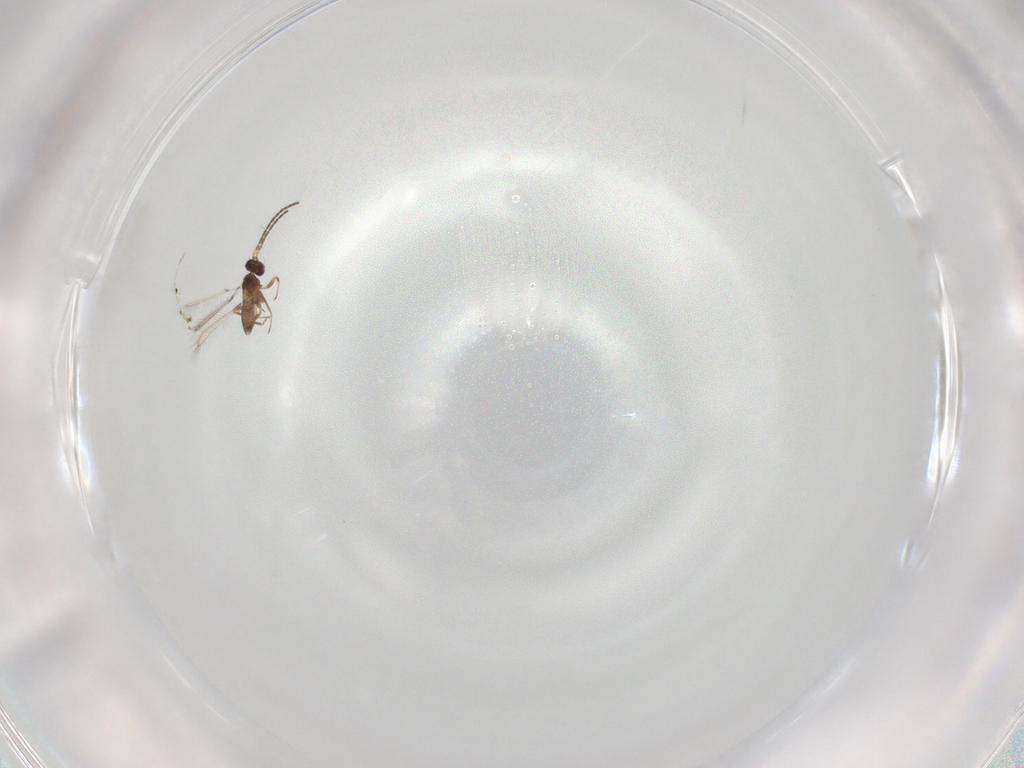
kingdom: Animalia
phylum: Arthropoda
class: Insecta
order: Hymenoptera
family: Mymaridae
